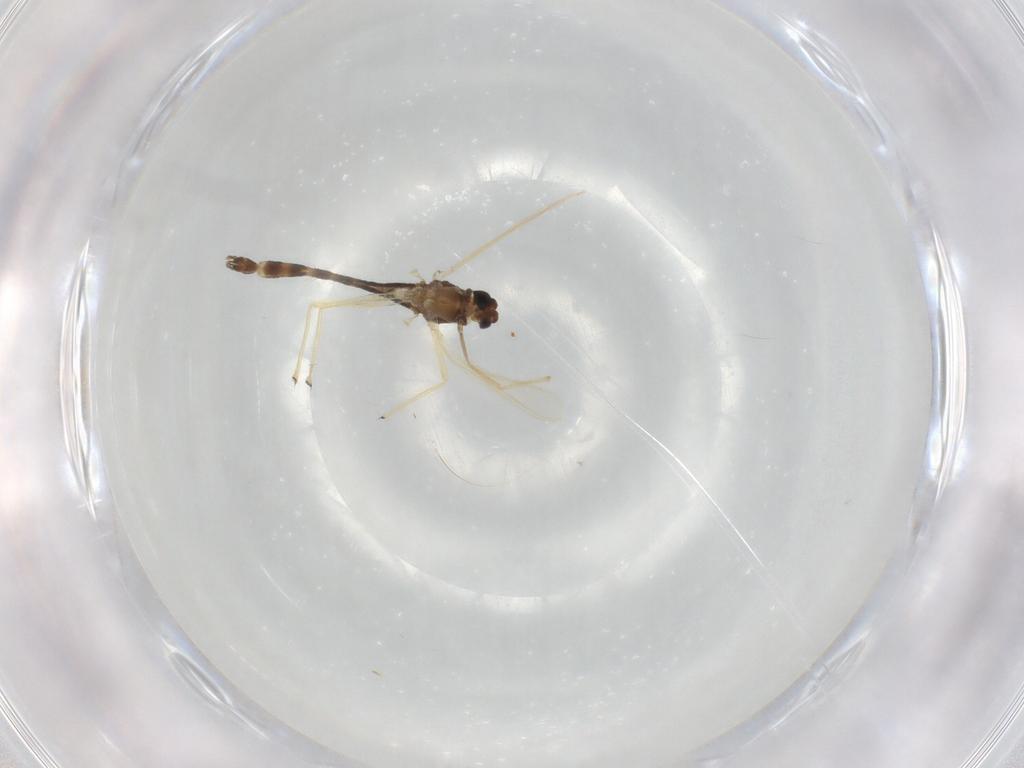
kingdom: Animalia
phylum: Arthropoda
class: Insecta
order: Diptera
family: Chironomidae
